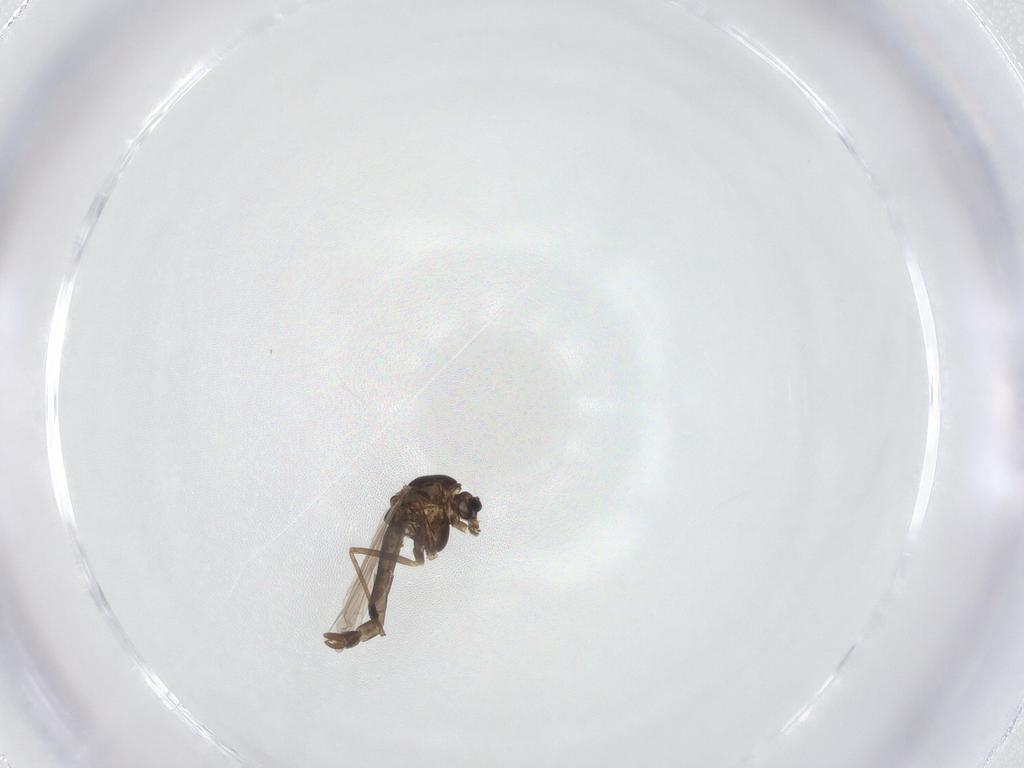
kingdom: Animalia
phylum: Arthropoda
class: Insecta
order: Diptera
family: Chironomidae
